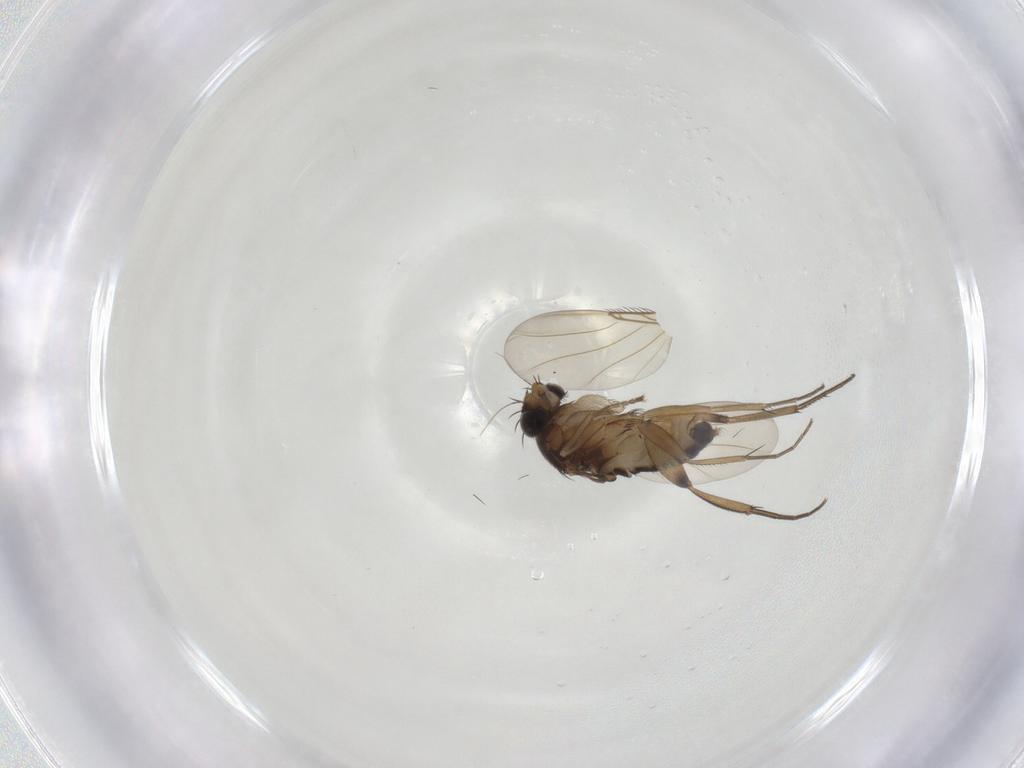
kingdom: Animalia
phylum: Arthropoda
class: Insecta
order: Diptera
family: Phoridae
